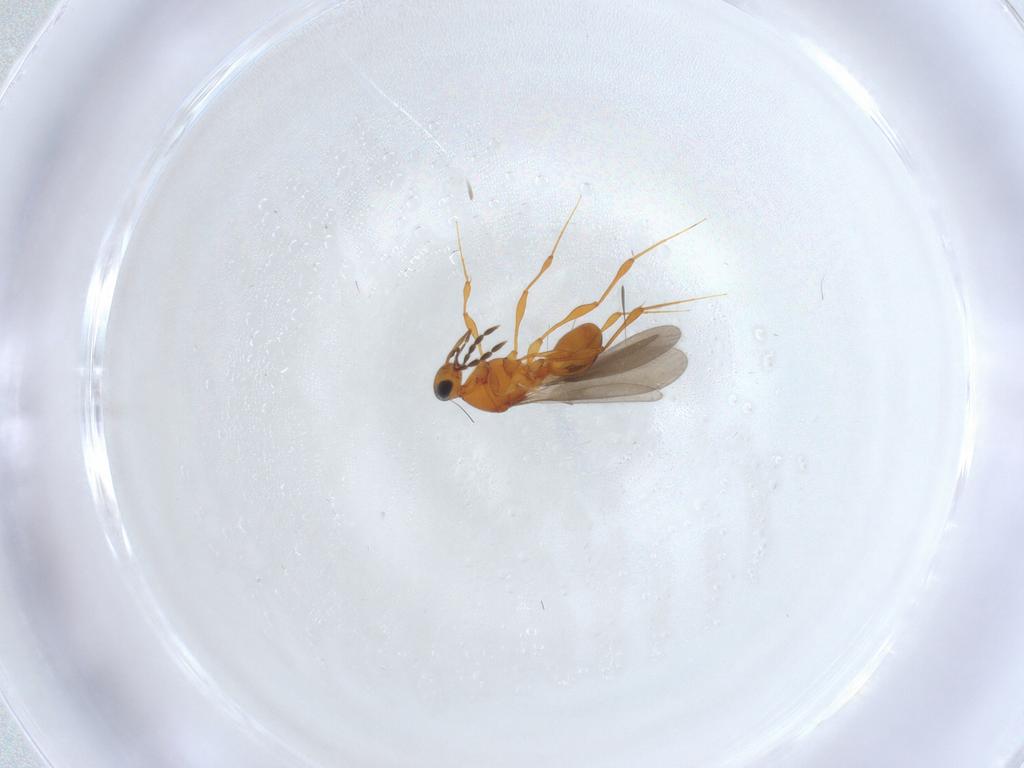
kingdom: Animalia
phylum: Arthropoda
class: Insecta
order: Hymenoptera
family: Platygastridae
